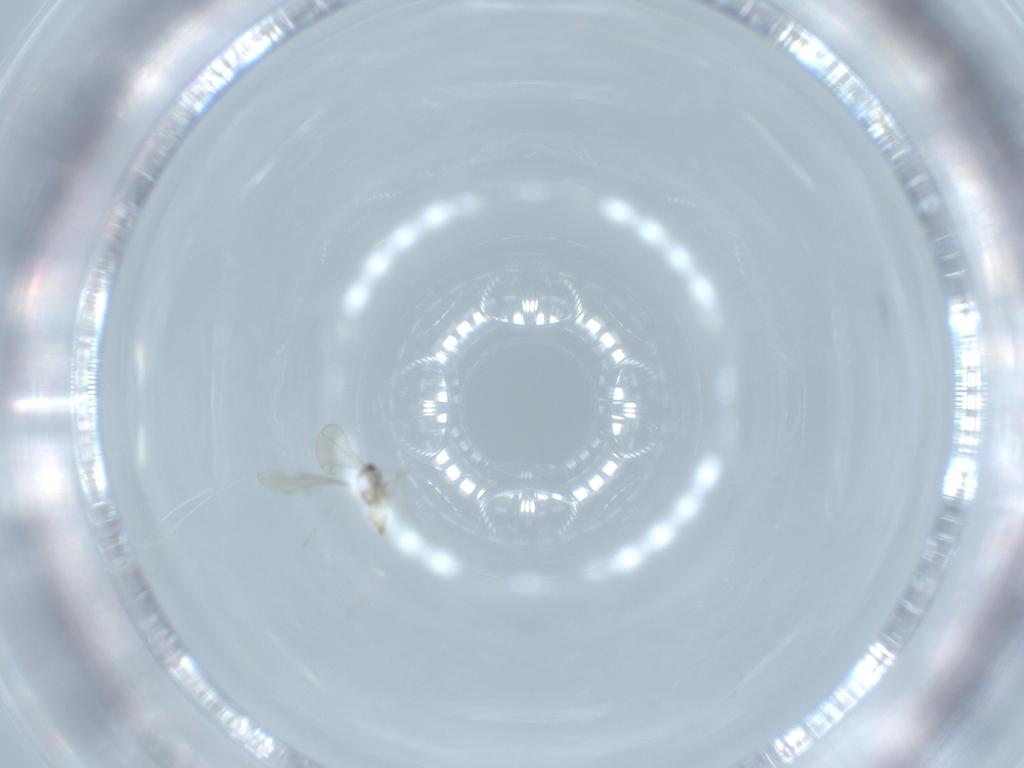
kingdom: Animalia
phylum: Arthropoda
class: Insecta
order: Diptera
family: Cecidomyiidae
